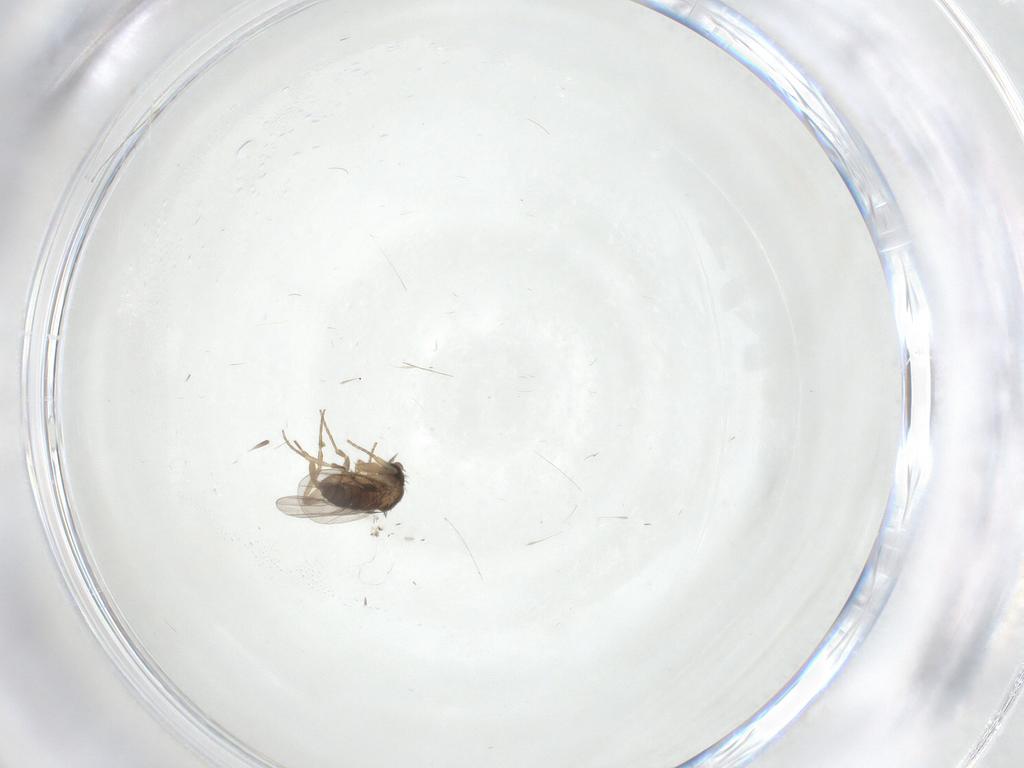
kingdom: Animalia
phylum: Arthropoda
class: Insecta
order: Diptera
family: Cecidomyiidae
